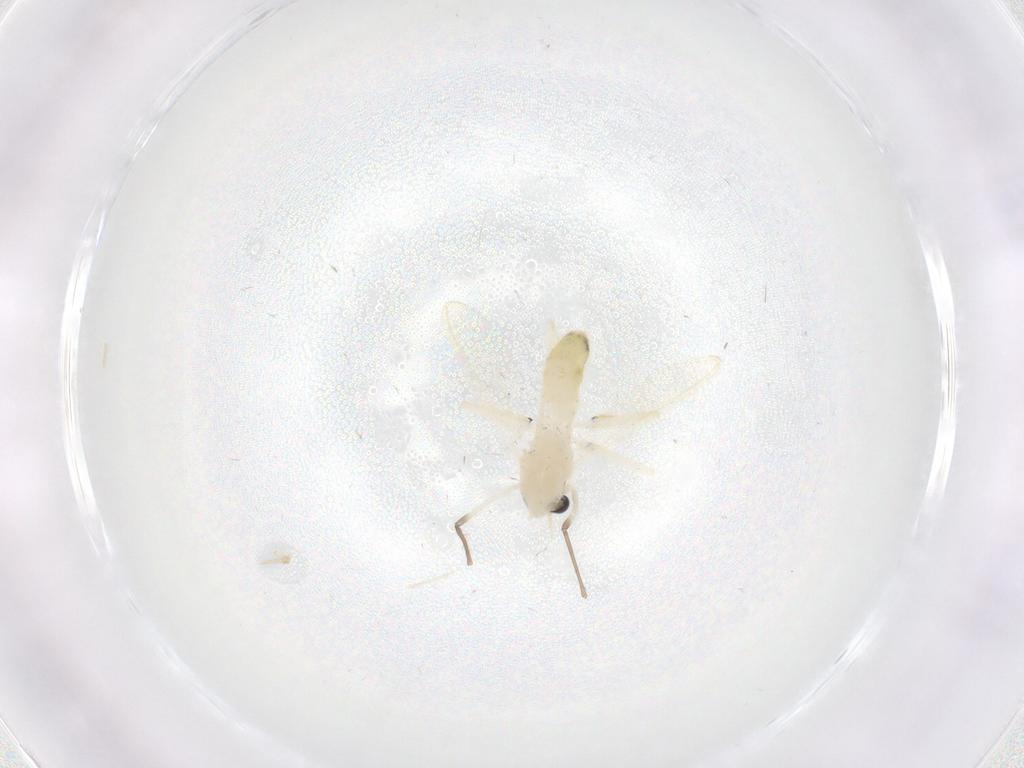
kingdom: Animalia
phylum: Arthropoda
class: Insecta
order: Diptera
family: Chironomidae
